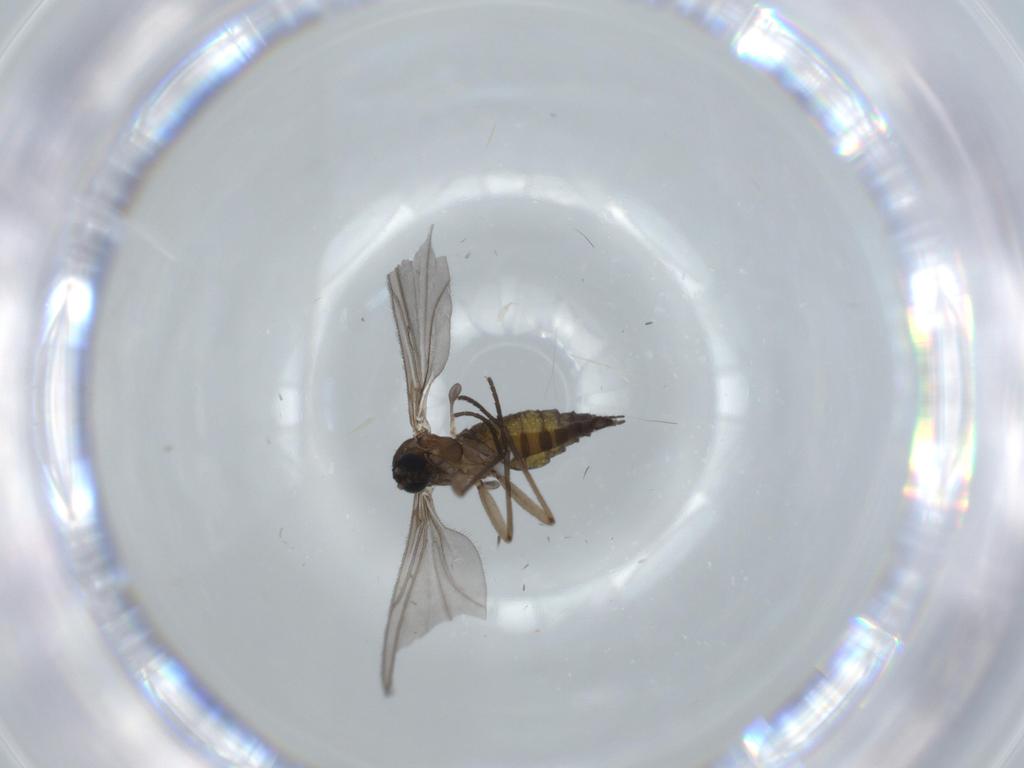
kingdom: Animalia
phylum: Arthropoda
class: Insecta
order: Diptera
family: Sciaridae
